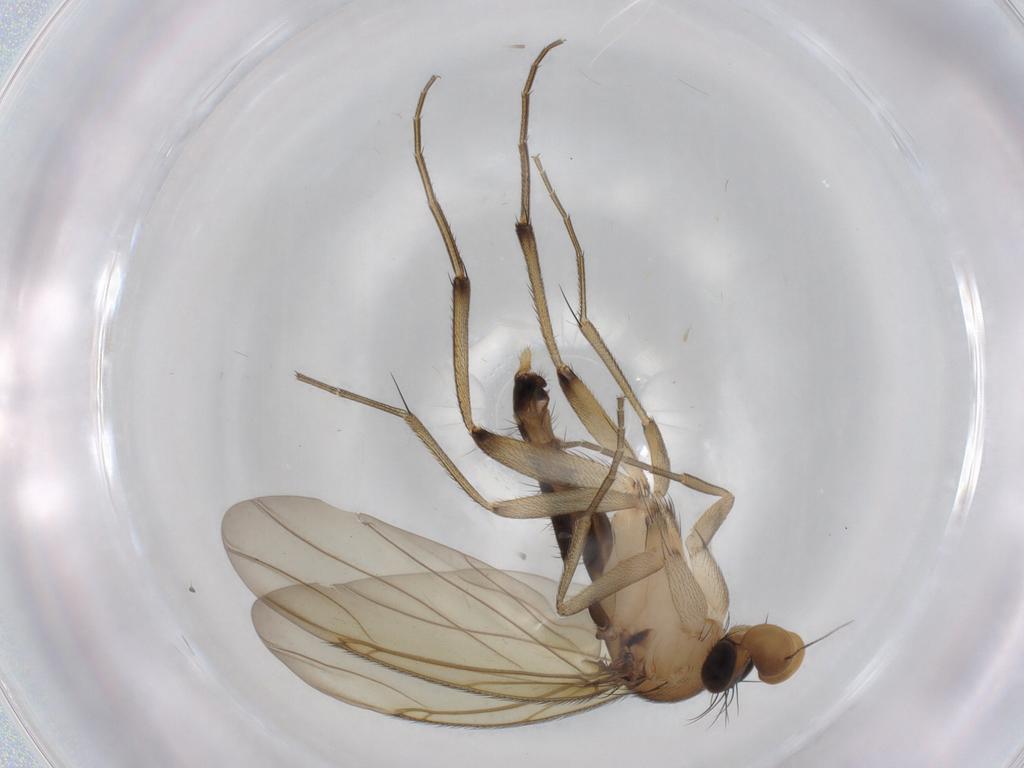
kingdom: Animalia
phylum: Arthropoda
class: Insecta
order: Diptera
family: Phoridae
